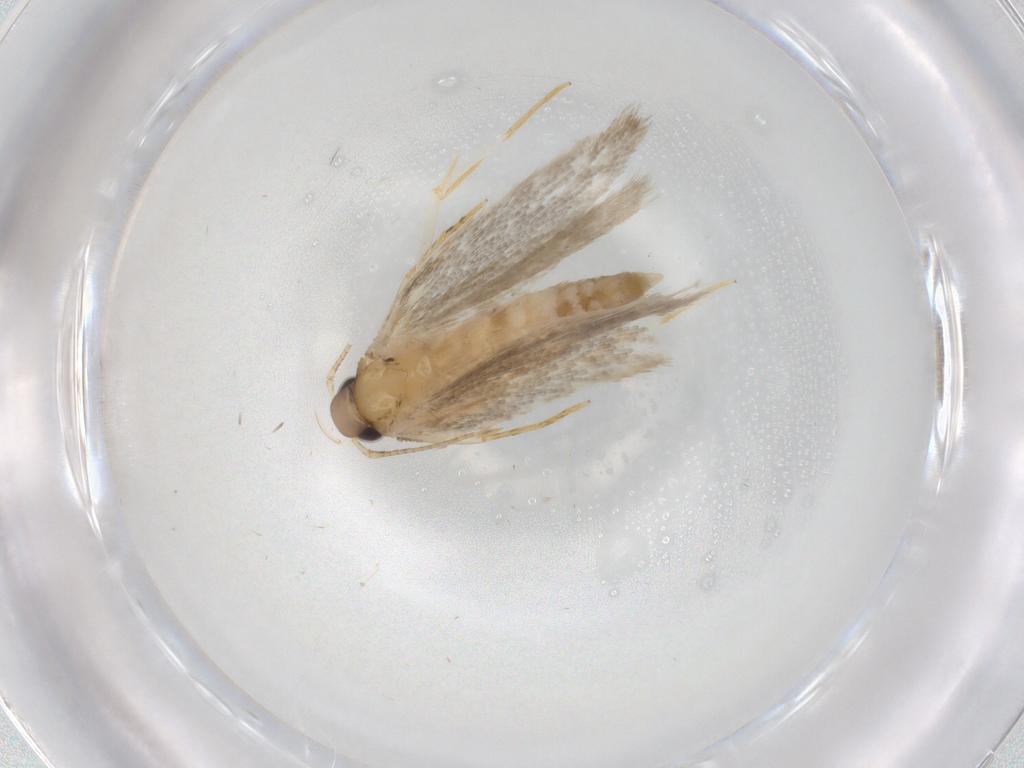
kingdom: Animalia
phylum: Arthropoda
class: Insecta
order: Lepidoptera
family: Autostichidae
